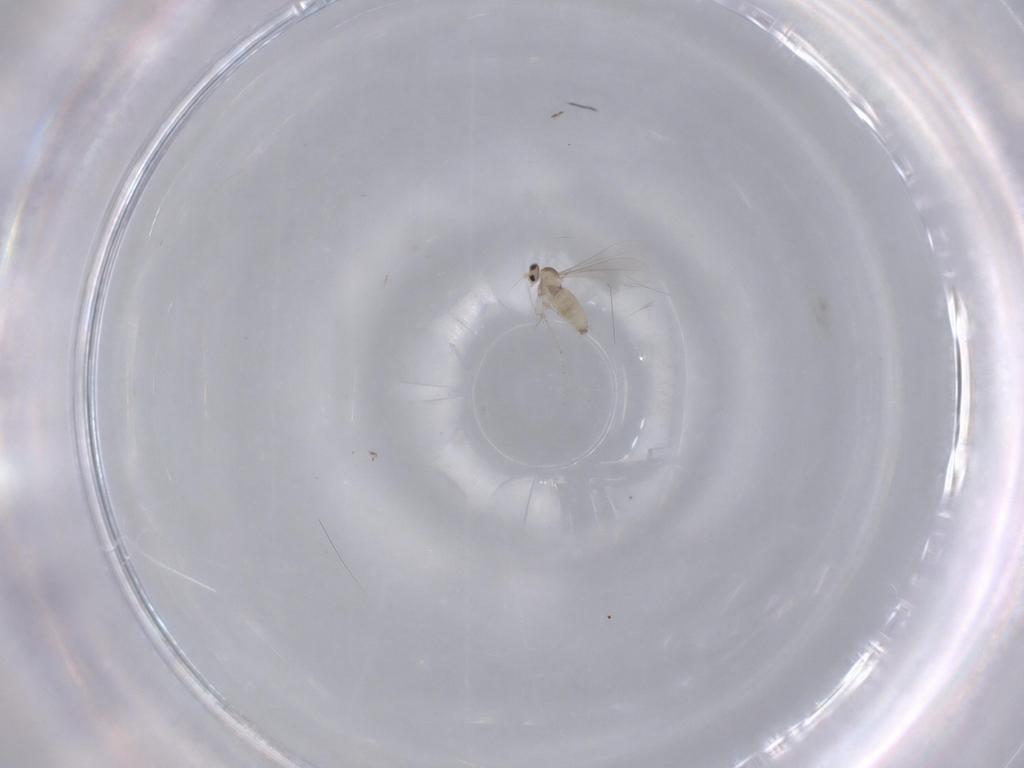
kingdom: Animalia
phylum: Arthropoda
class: Insecta
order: Diptera
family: Cecidomyiidae
